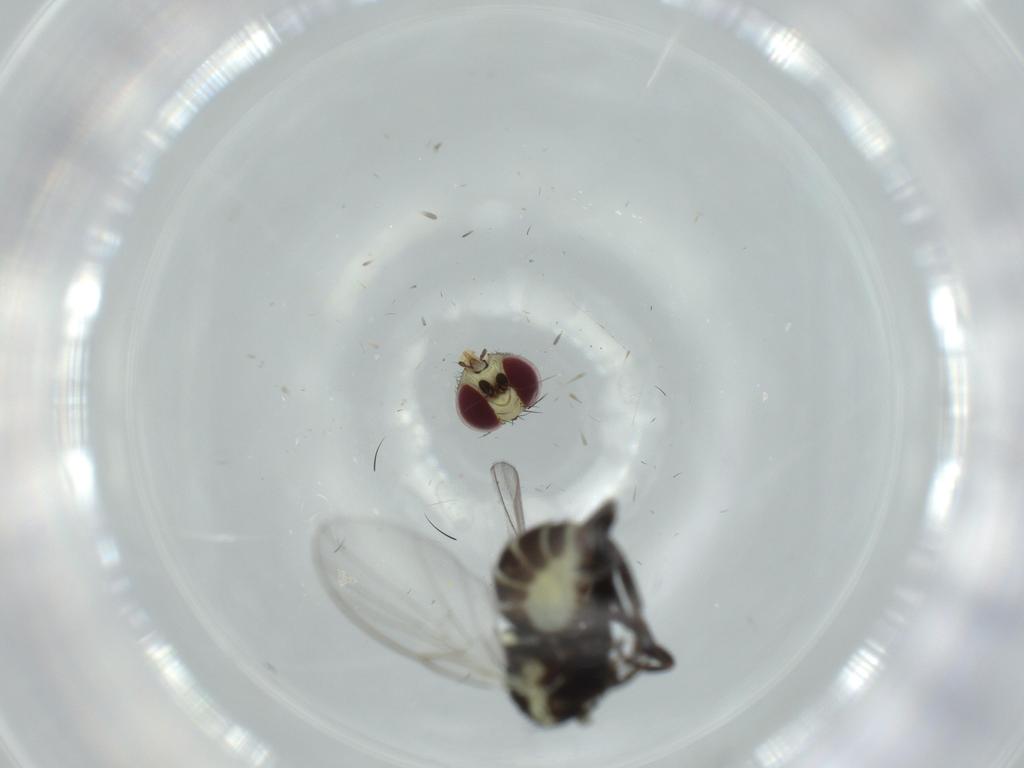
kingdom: Animalia
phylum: Arthropoda
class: Insecta
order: Diptera
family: Agromyzidae
